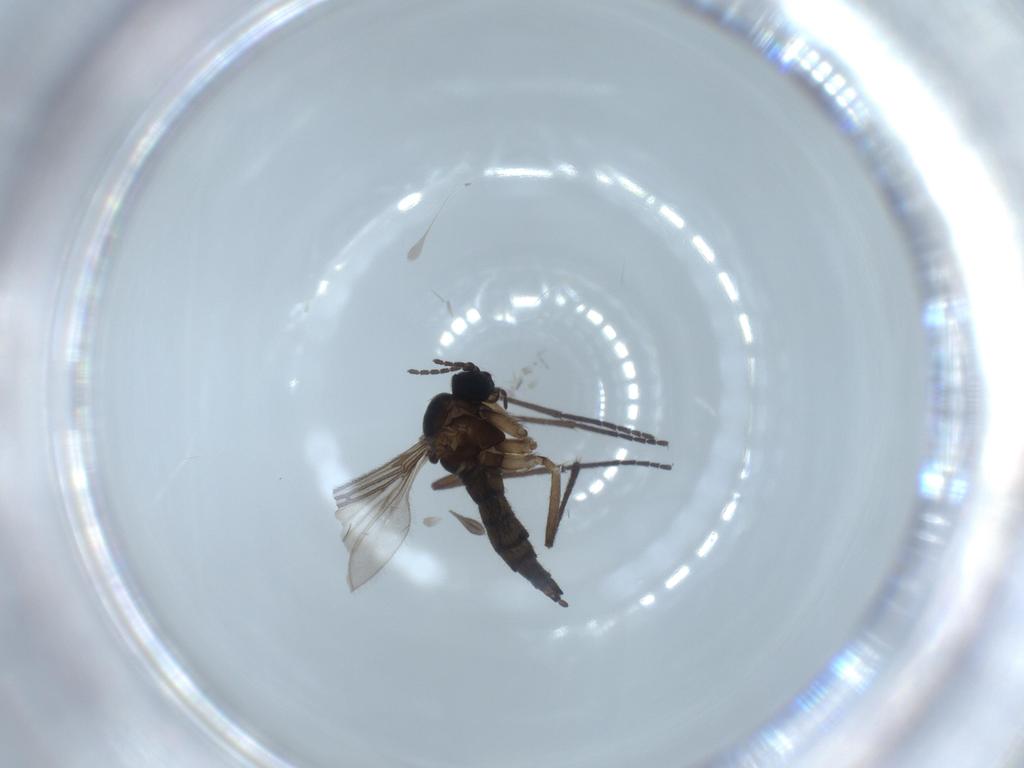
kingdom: Animalia
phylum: Arthropoda
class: Insecta
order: Diptera
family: Sciaridae
